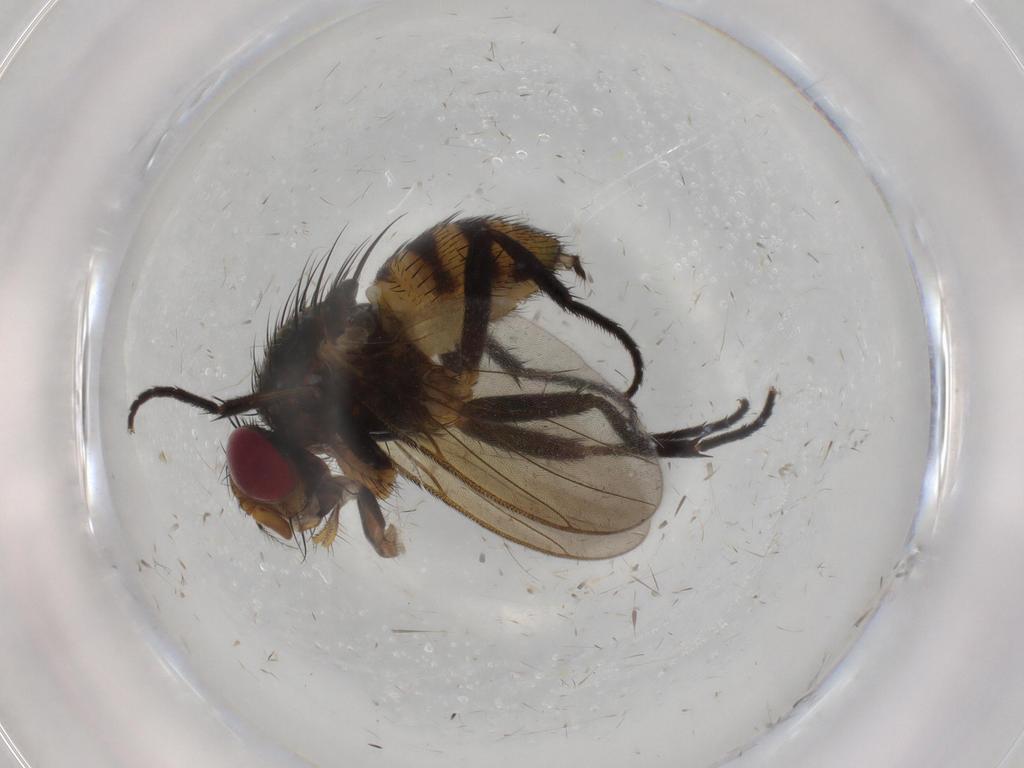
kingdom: Animalia
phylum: Arthropoda
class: Insecta
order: Diptera
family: Anthomyiidae
